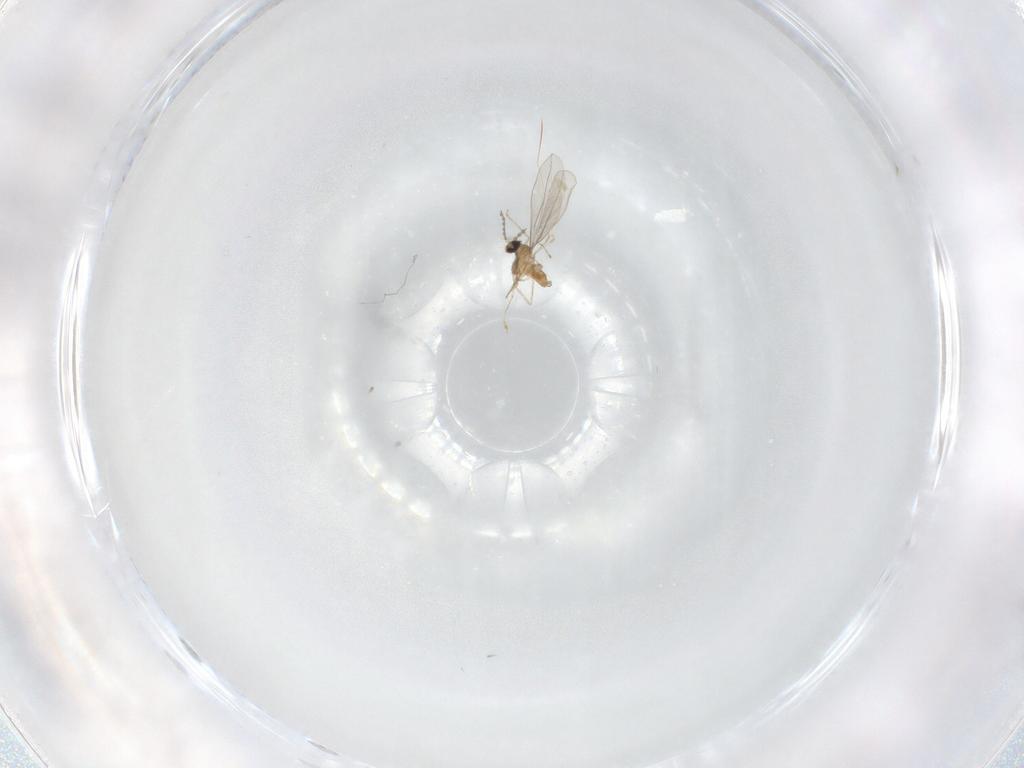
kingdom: Animalia
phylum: Arthropoda
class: Insecta
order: Diptera
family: Cecidomyiidae
